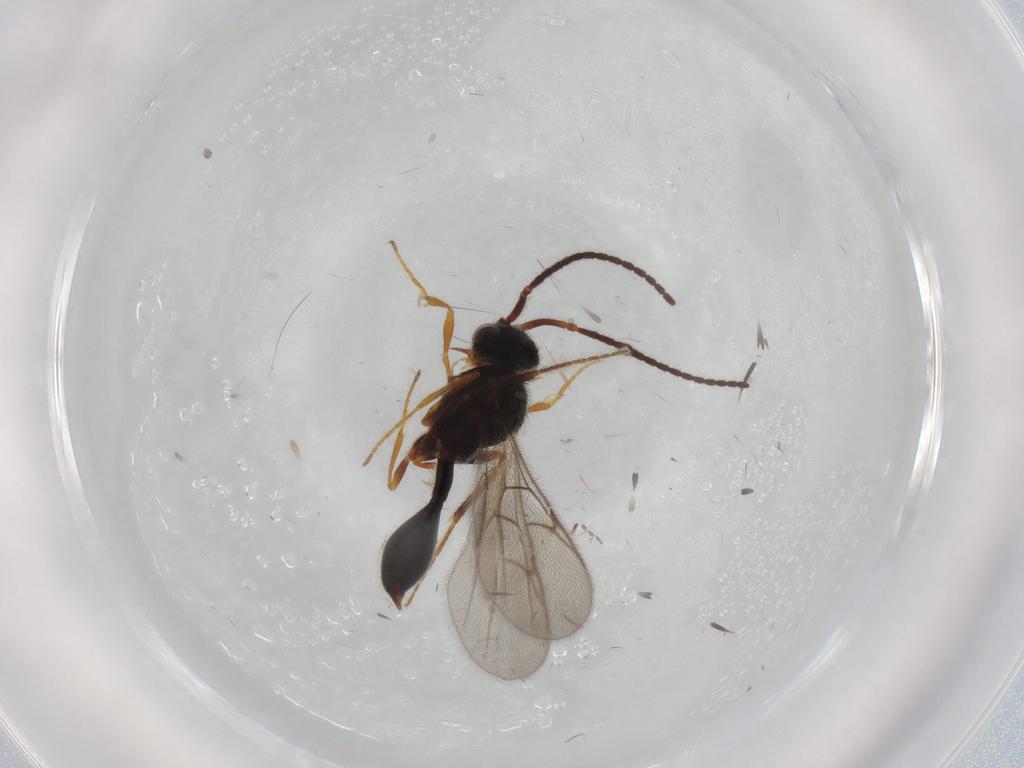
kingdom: Animalia
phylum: Arthropoda
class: Insecta
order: Hymenoptera
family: Diapriidae
